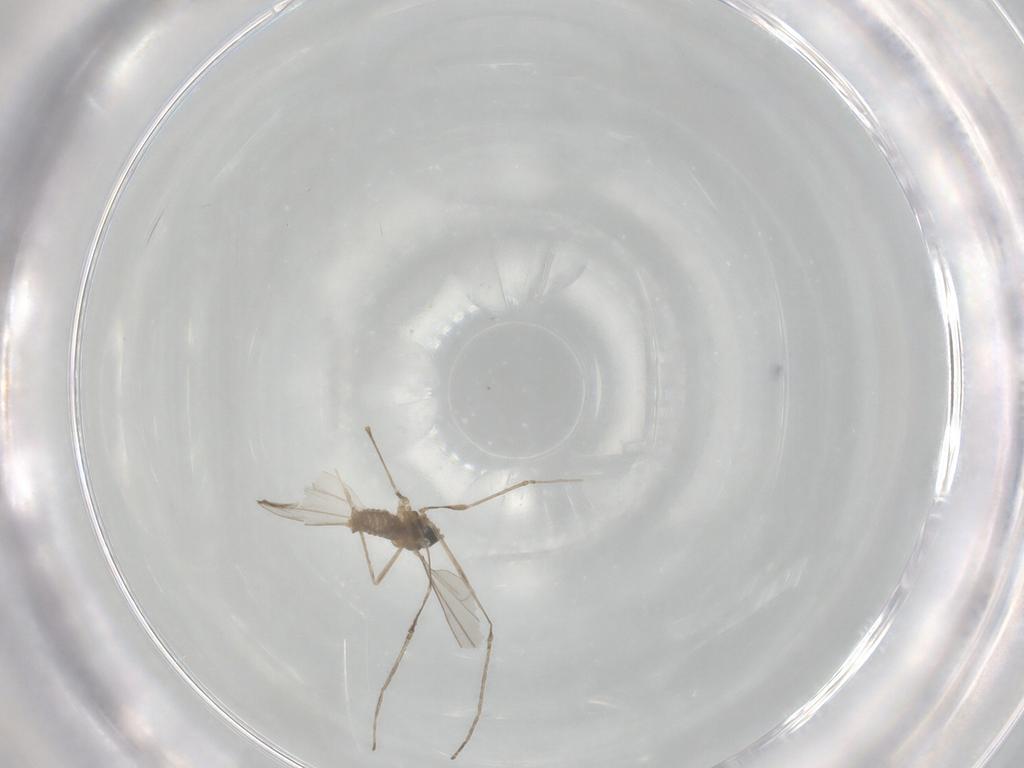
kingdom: Animalia
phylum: Arthropoda
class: Insecta
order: Diptera
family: Cecidomyiidae
